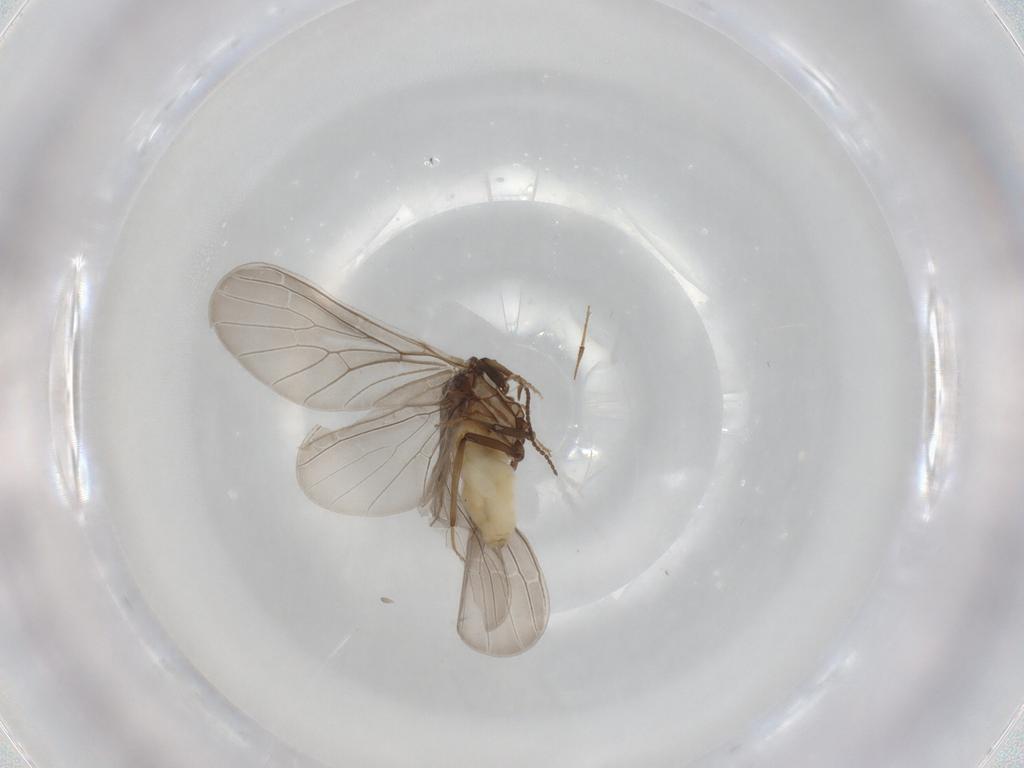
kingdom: Animalia
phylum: Arthropoda
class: Insecta
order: Neuroptera
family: Coniopterygidae
